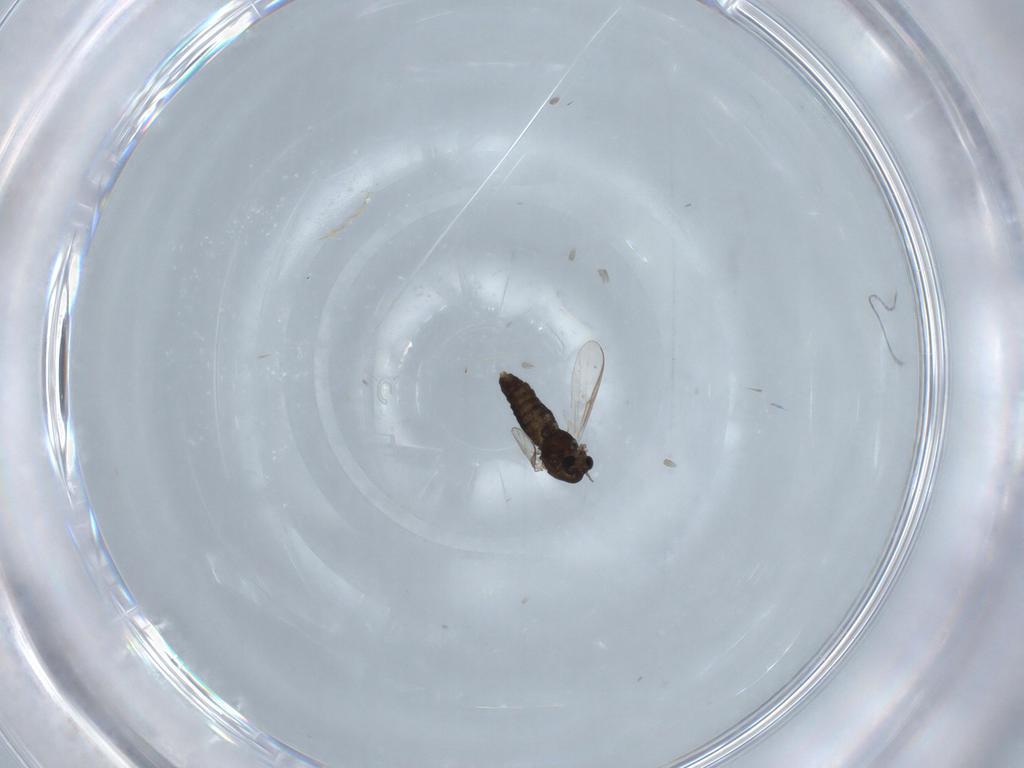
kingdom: Animalia
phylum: Arthropoda
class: Insecta
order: Diptera
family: Chironomidae
